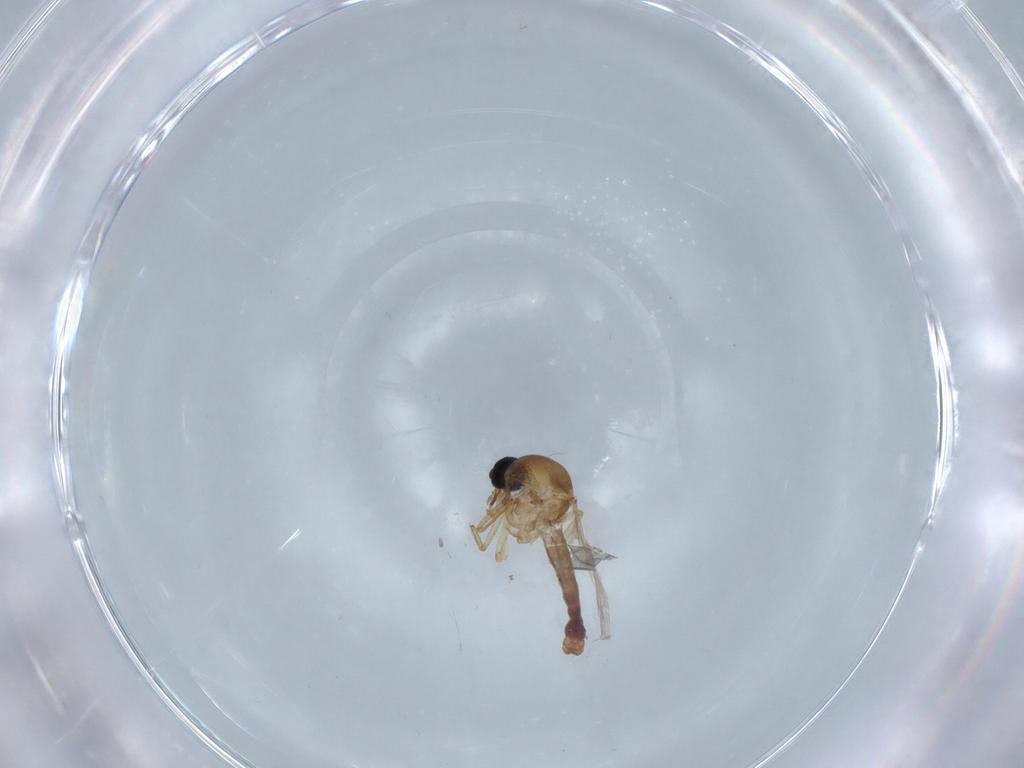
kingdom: Animalia
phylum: Arthropoda
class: Insecta
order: Diptera
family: Ceratopogonidae
